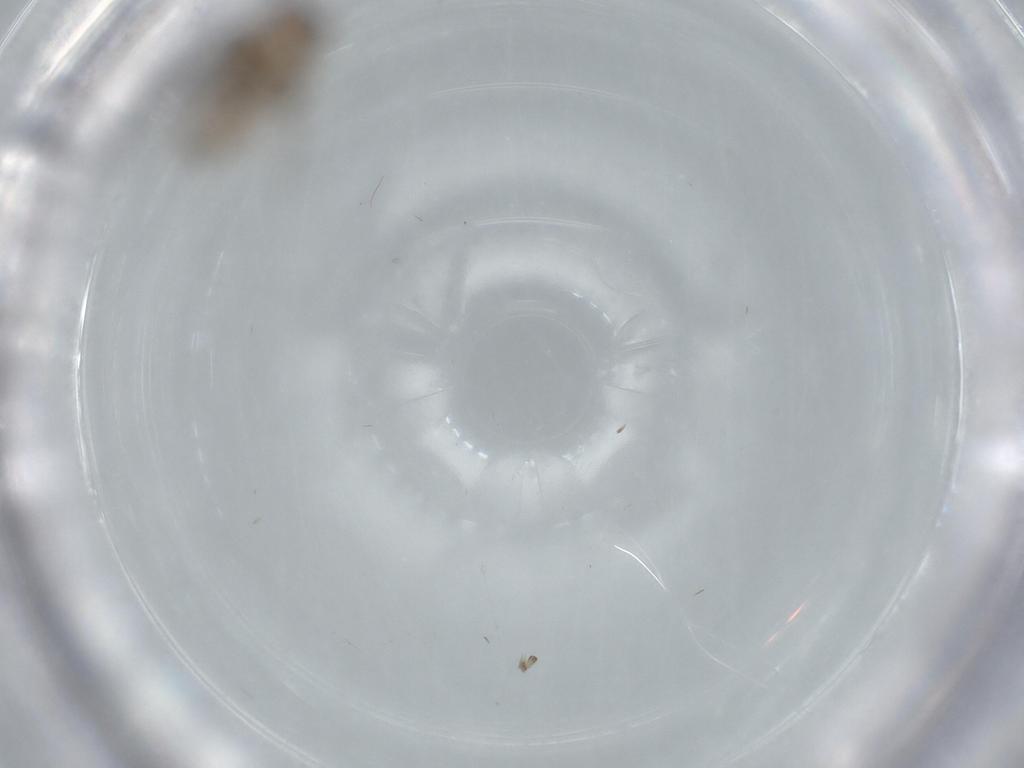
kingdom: Animalia
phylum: Arthropoda
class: Insecta
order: Psocodea
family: Lepidopsocidae
